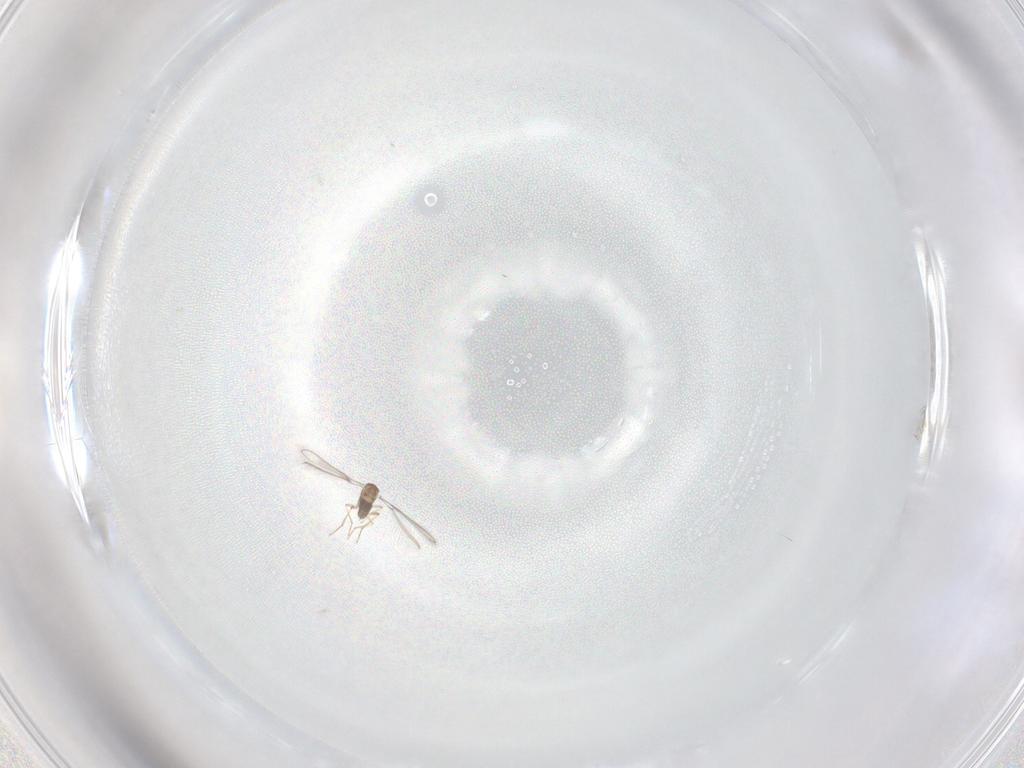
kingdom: Animalia
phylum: Arthropoda
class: Insecta
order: Hymenoptera
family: Mymaridae
